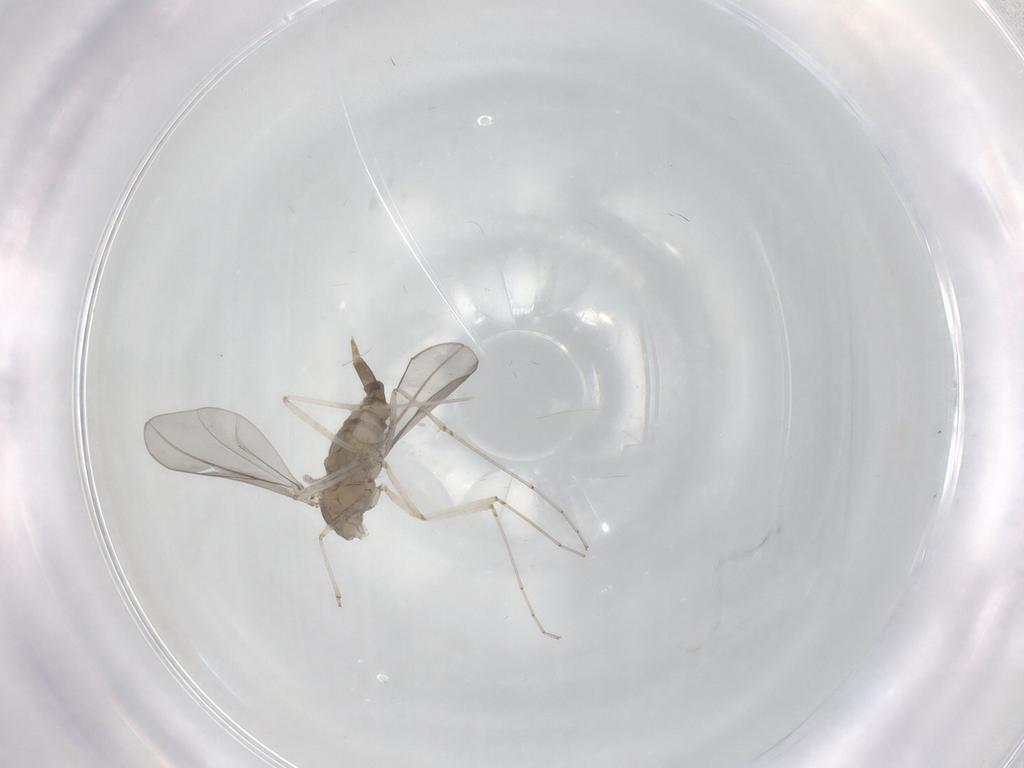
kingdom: Animalia
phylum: Arthropoda
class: Insecta
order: Diptera
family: Cecidomyiidae
